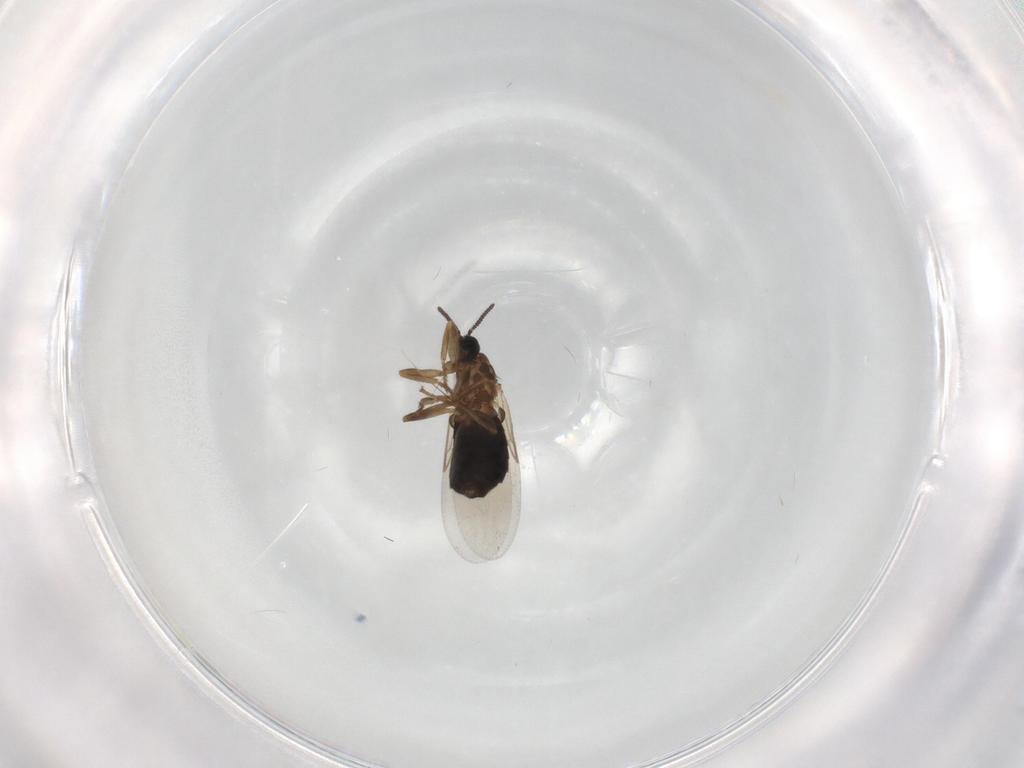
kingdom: Animalia
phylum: Arthropoda
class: Insecta
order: Diptera
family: Scatopsidae
